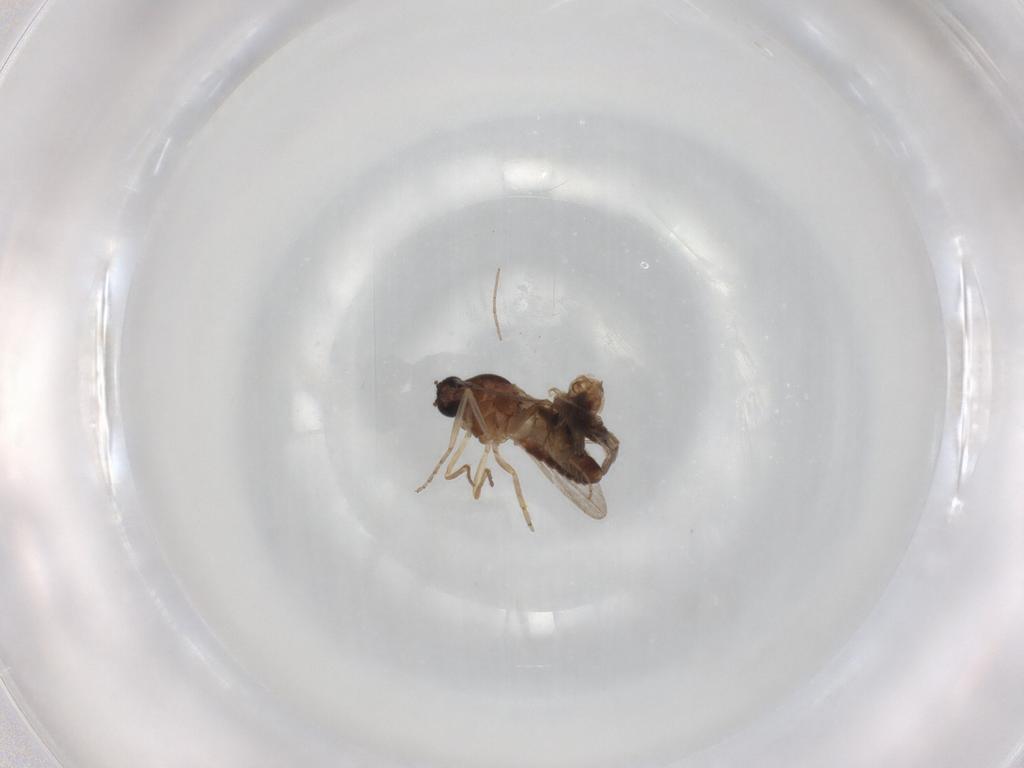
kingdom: Animalia
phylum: Arthropoda
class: Insecta
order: Diptera
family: Chironomidae
